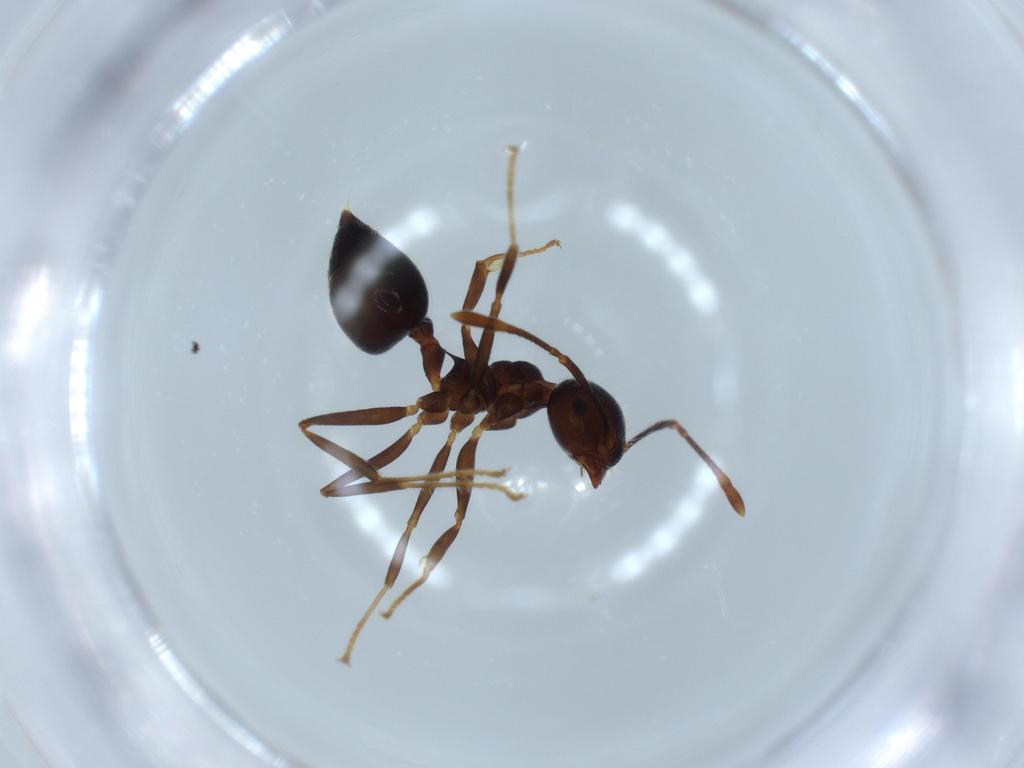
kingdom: Animalia
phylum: Arthropoda
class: Insecta
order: Hymenoptera
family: Formicidae
